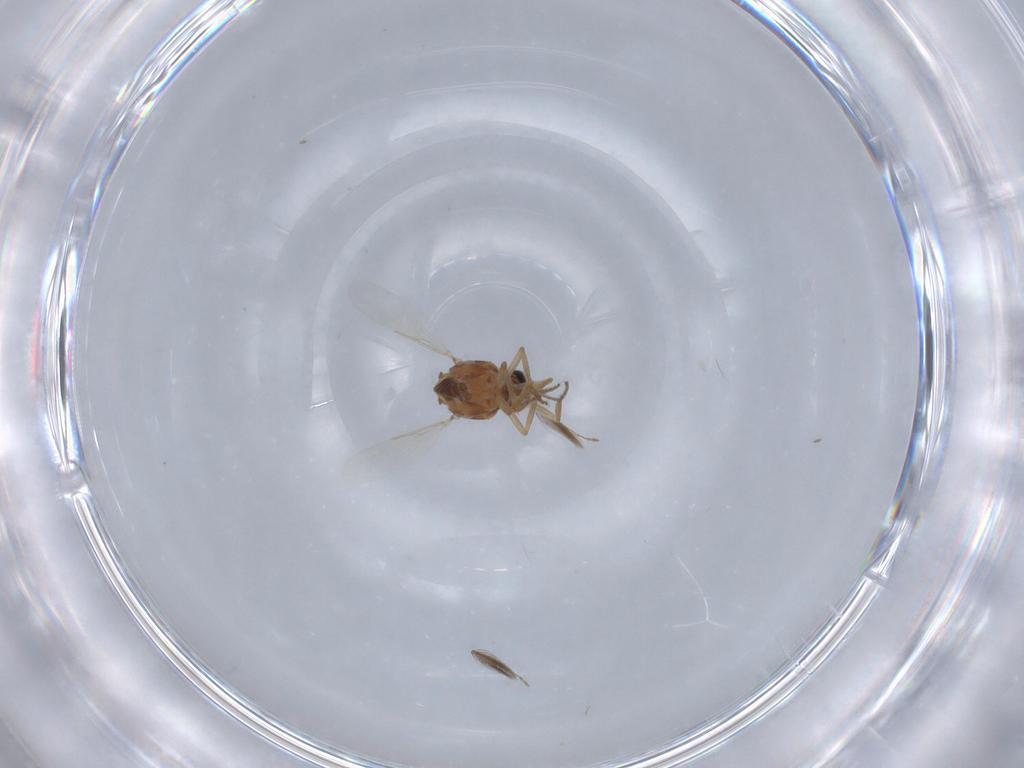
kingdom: Animalia
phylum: Arthropoda
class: Insecta
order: Diptera
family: Ceratopogonidae
